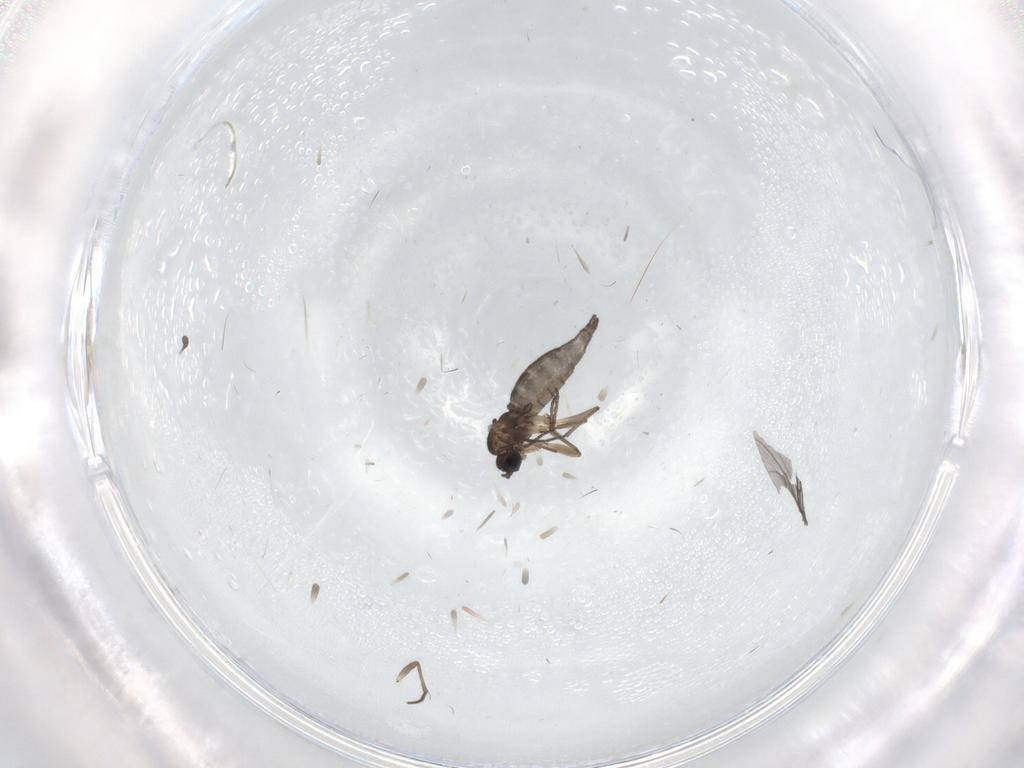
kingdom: Animalia
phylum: Arthropoda
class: Insecta
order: Diptera
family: Sciaridae
